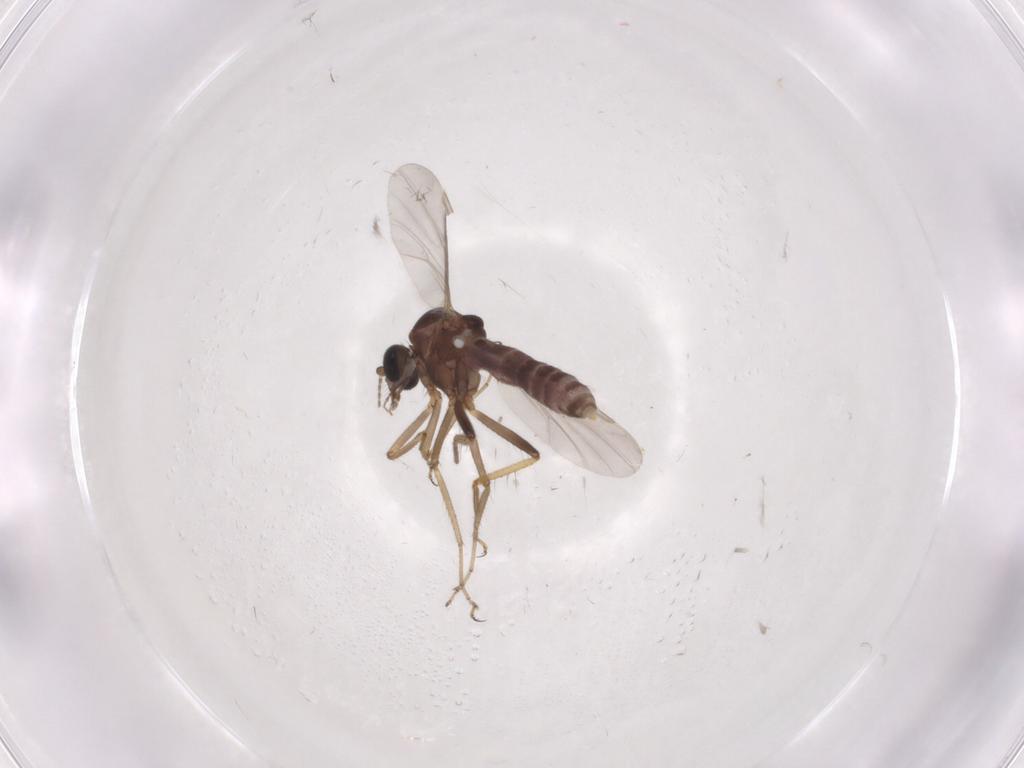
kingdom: Animalia
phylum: Arthropoda
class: Insecta
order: Diptera
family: Ceratopogonidae
